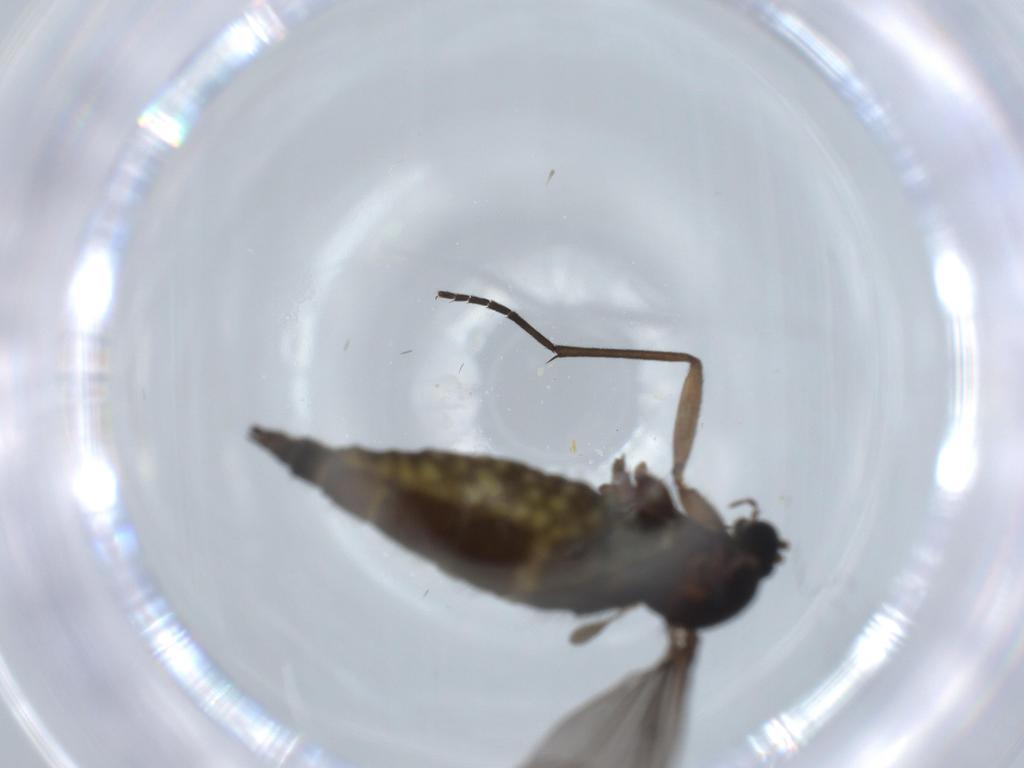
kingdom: Animalia
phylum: Arthropoda
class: Insecta
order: Diptera
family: Sciaridae
